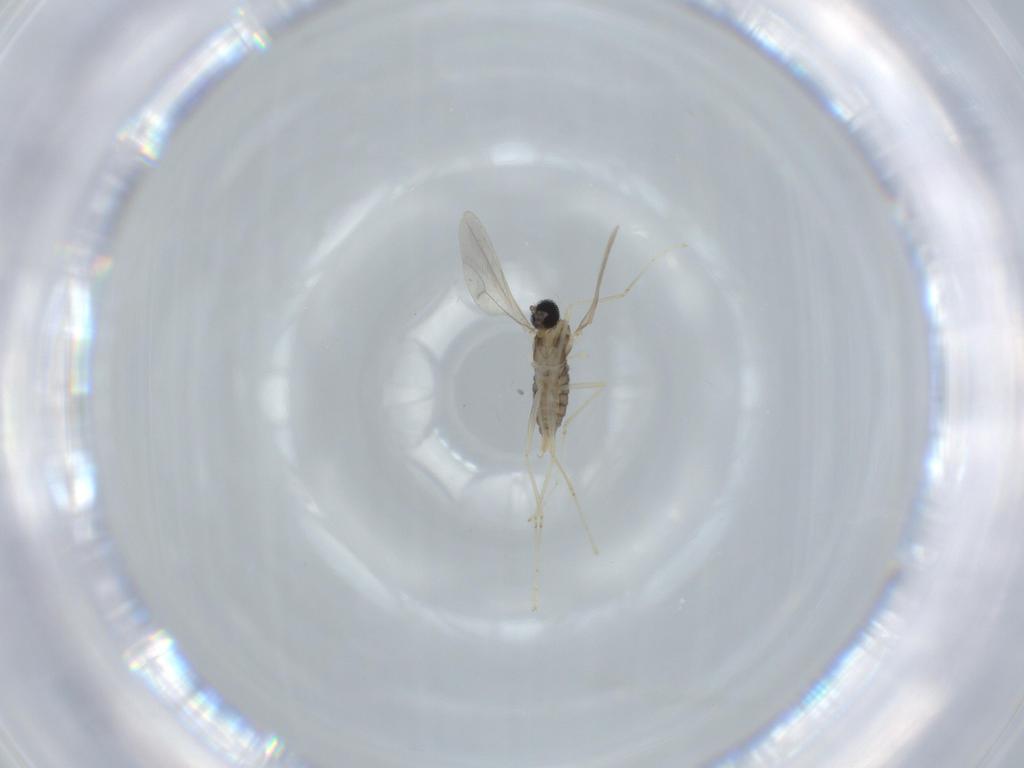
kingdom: Animalia
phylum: Arthropoda
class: Insecta
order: Diptera
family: Cecidomyiidae
